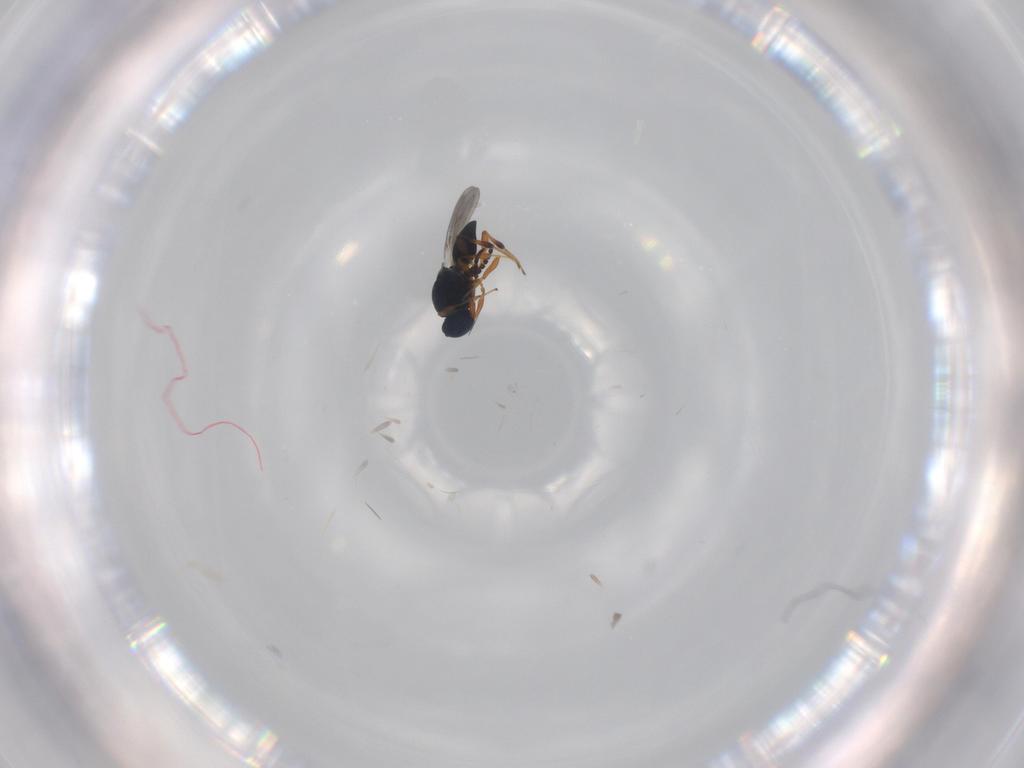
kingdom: Animalia
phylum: Arthropoda
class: Insecta
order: Hymenoptera
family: Platygastridae
